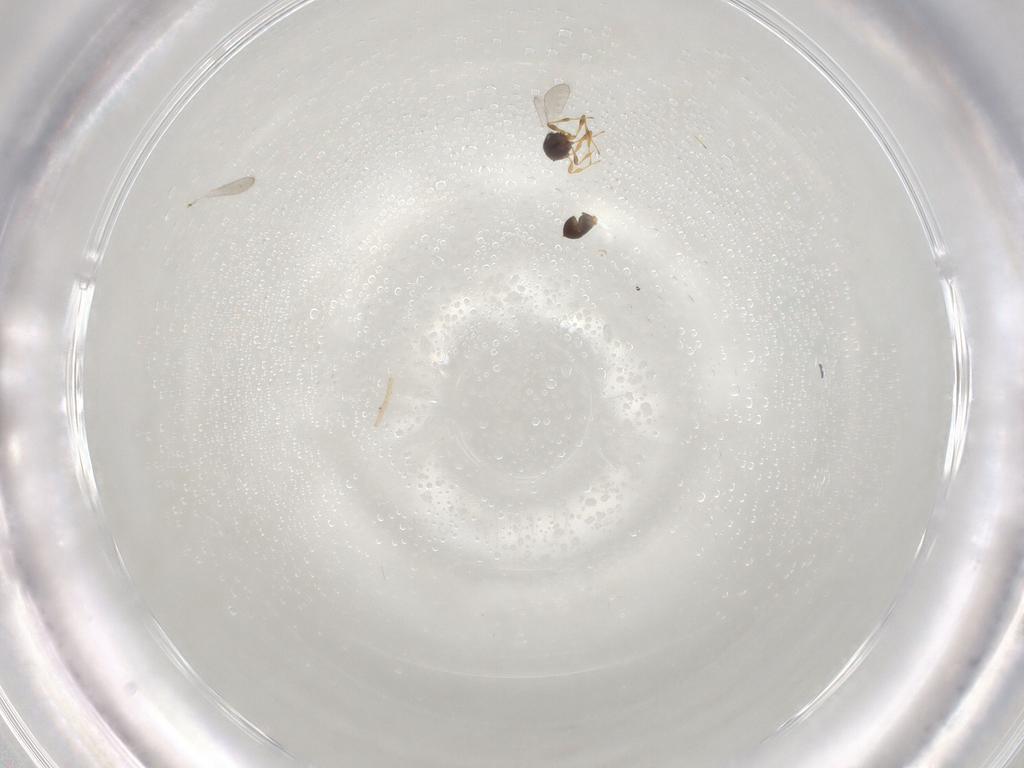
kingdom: Animalia
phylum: Arthropoda
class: Insecta
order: Hymenoptera
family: Platygastridae
